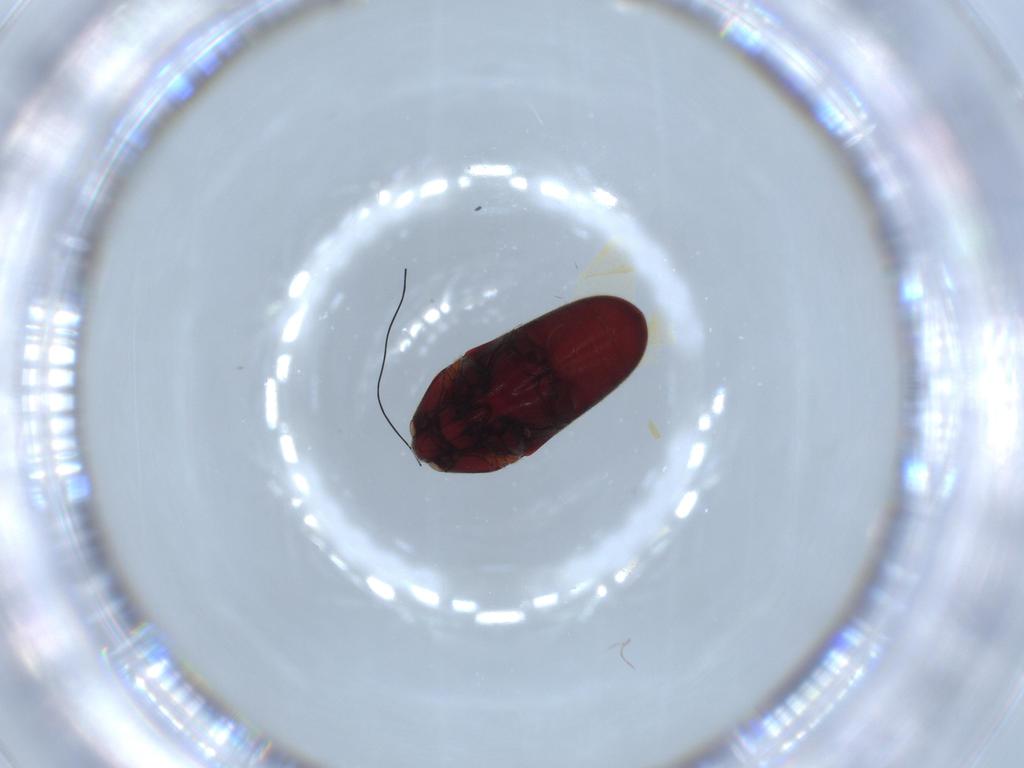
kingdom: Animalia
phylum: Arthropoda
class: Insecta
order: Coleoptera
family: Throscidae
